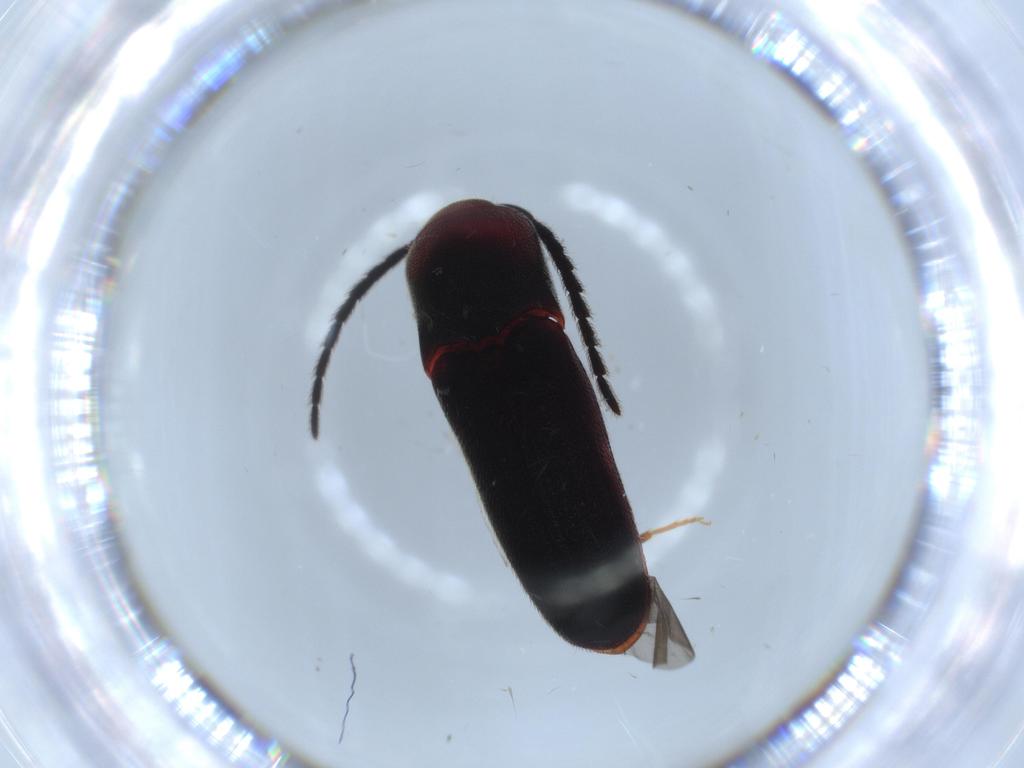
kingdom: Animalia
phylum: Arthropoda
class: Insecta
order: Coleoptera
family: Eucnemidae
